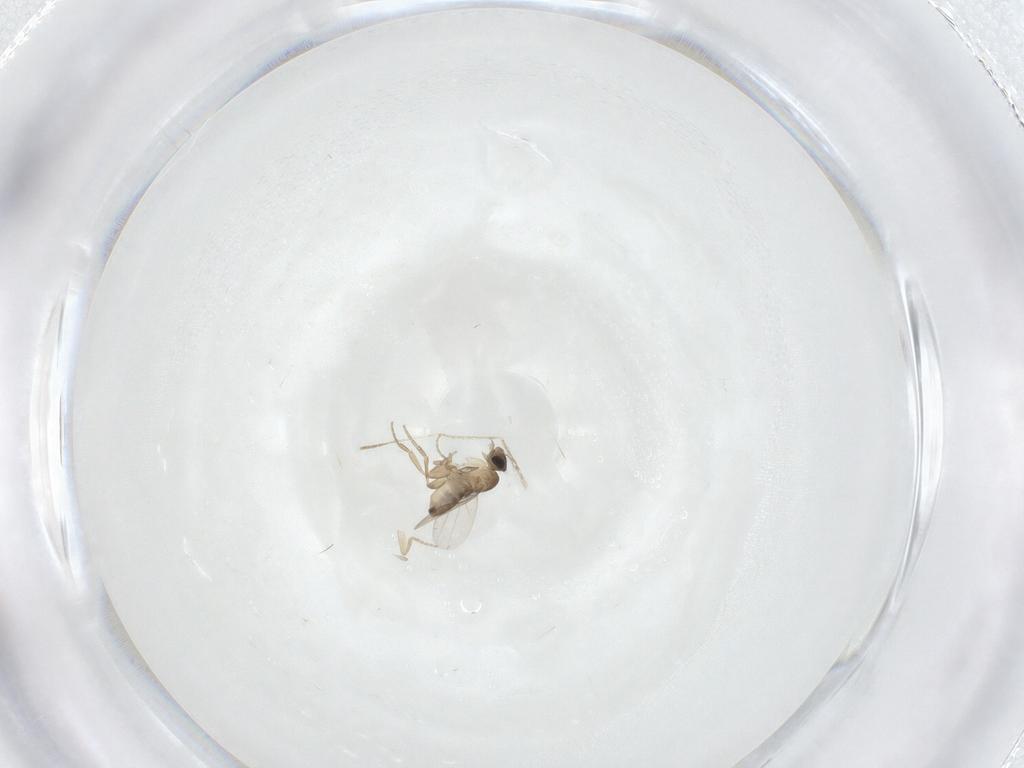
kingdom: Animalia
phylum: Arthropoda
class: Insecta
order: Diptera
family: Phoridae
